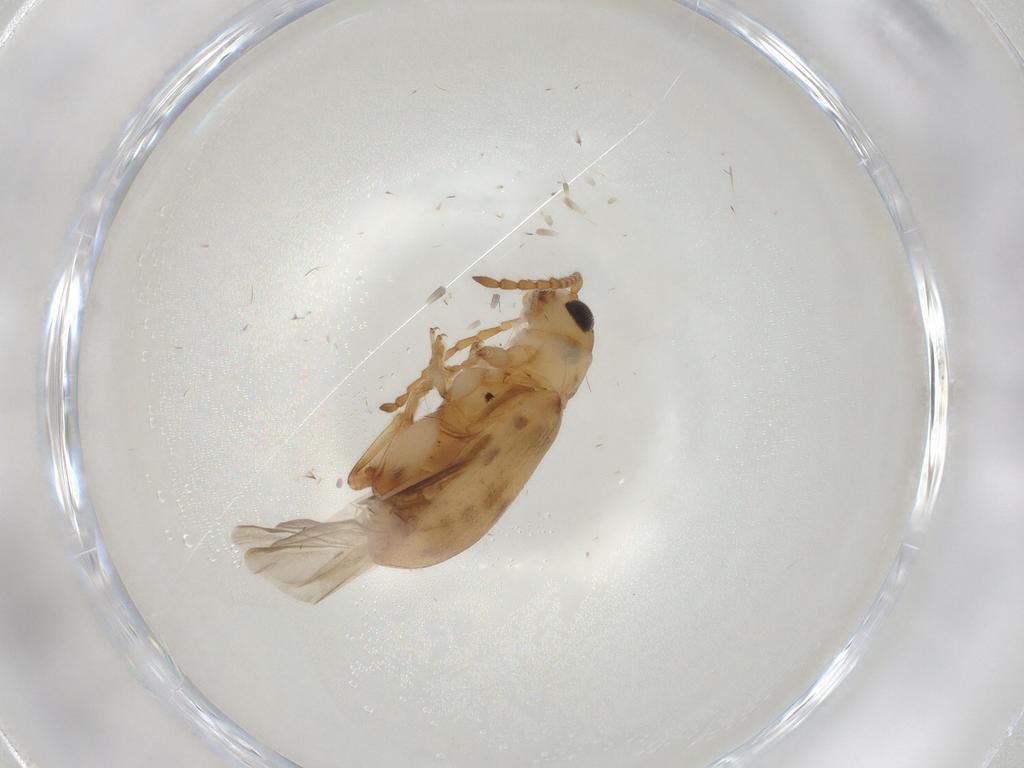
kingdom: Animalia
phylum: Arthropoda
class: Insecta
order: Coleoptera
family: Chrysomelidae
